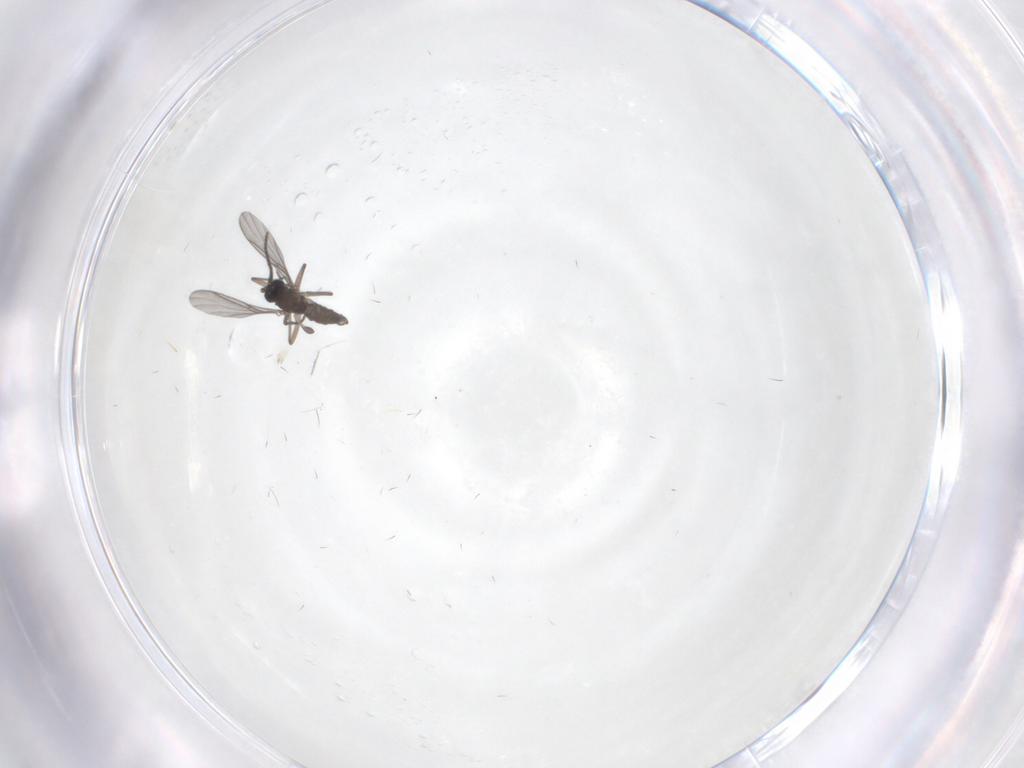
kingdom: Animalia
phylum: Arthropoda
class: Insecta
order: Diptera
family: Sciaridae
